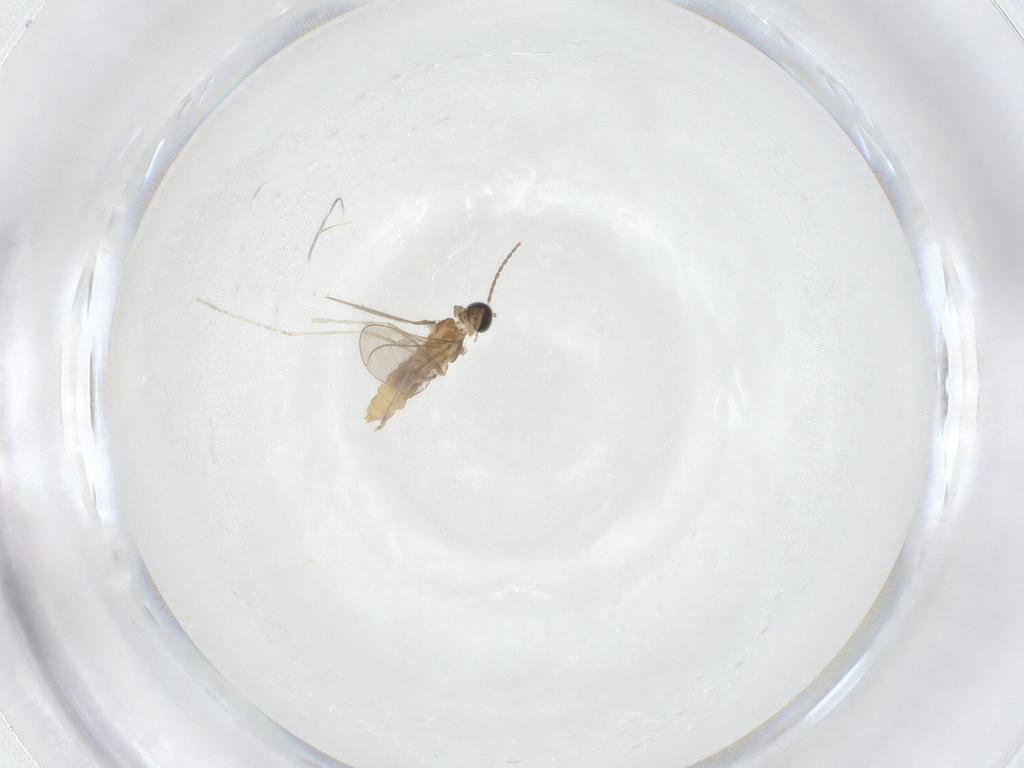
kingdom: Animalia
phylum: Arthropoda
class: Insecta
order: Diptera
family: Cecidomyiidae
